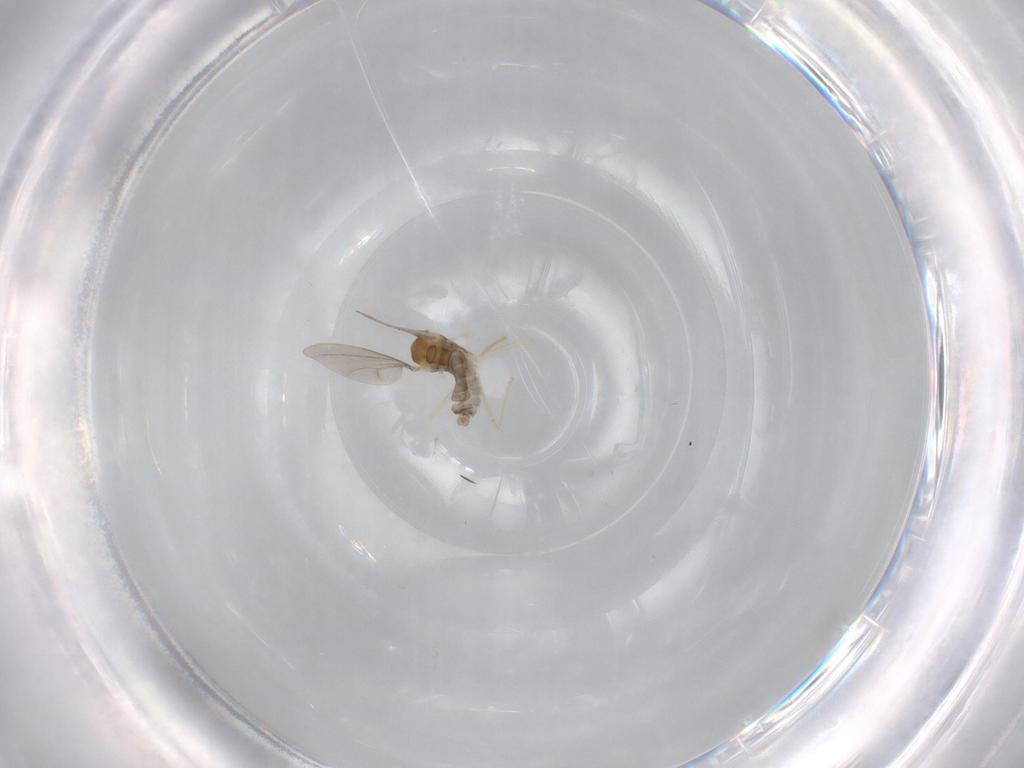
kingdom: Animalia
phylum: Arthropoda
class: Insecta
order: Diptera
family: Cecidomyiidae
